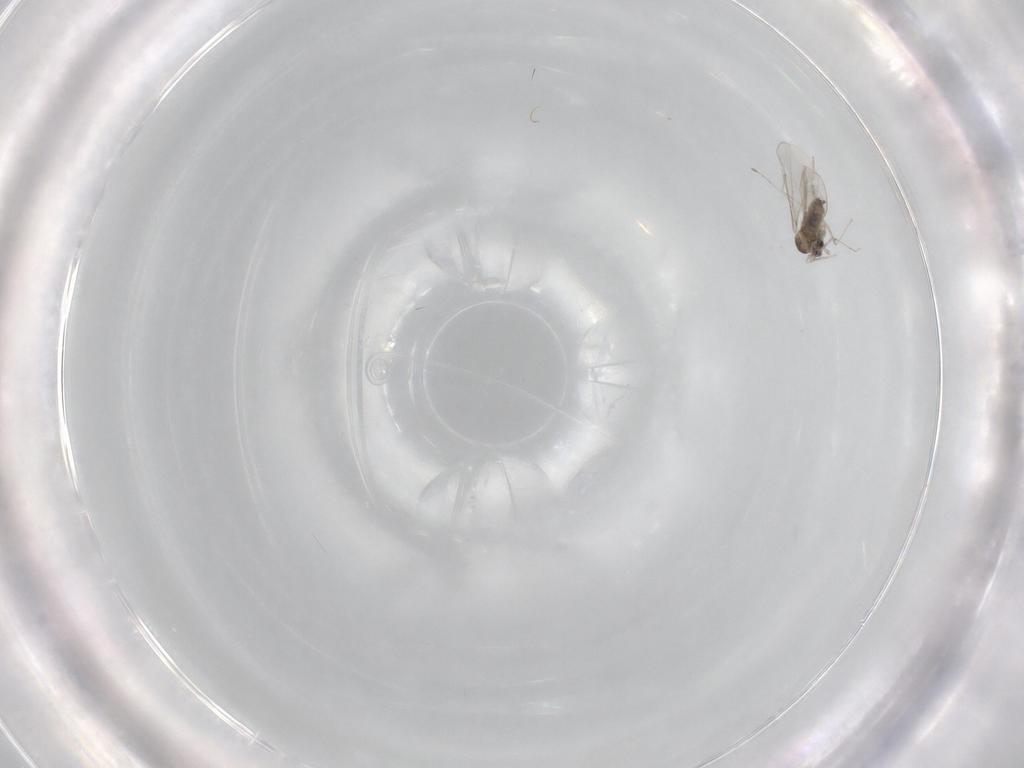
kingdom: Animalia
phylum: Arthropoda
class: Insecta
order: Diptera
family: Cecidomyiidae
